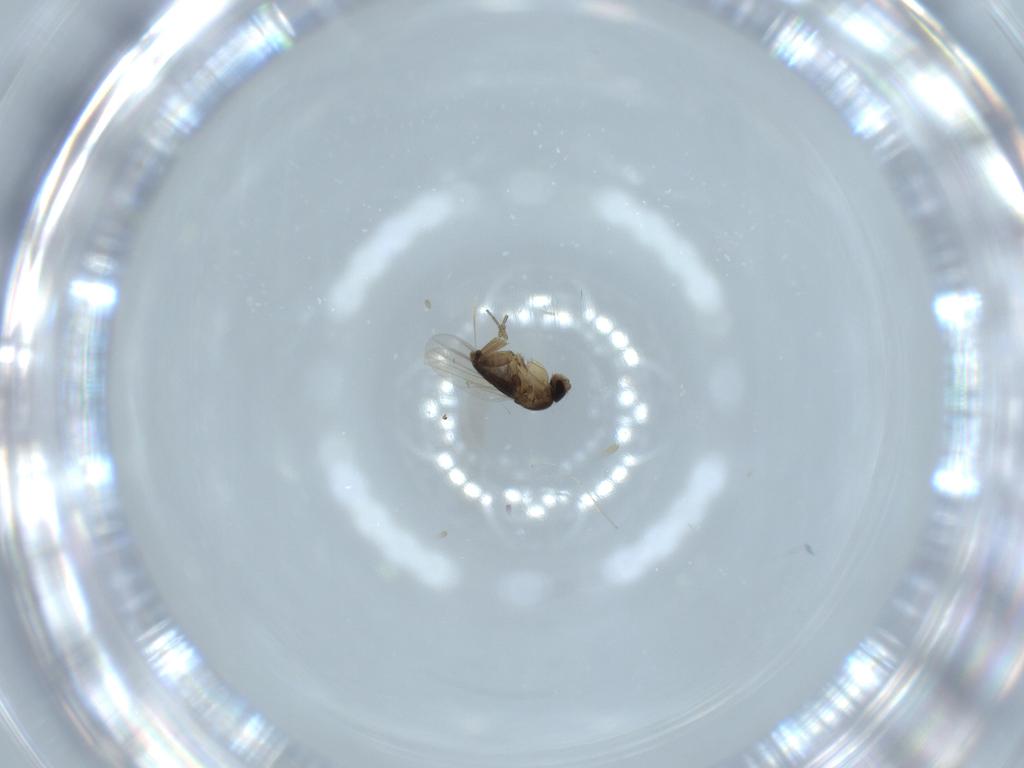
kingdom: Animalia
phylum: Arthropoda
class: Insecta
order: Diptera
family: Phoridae
